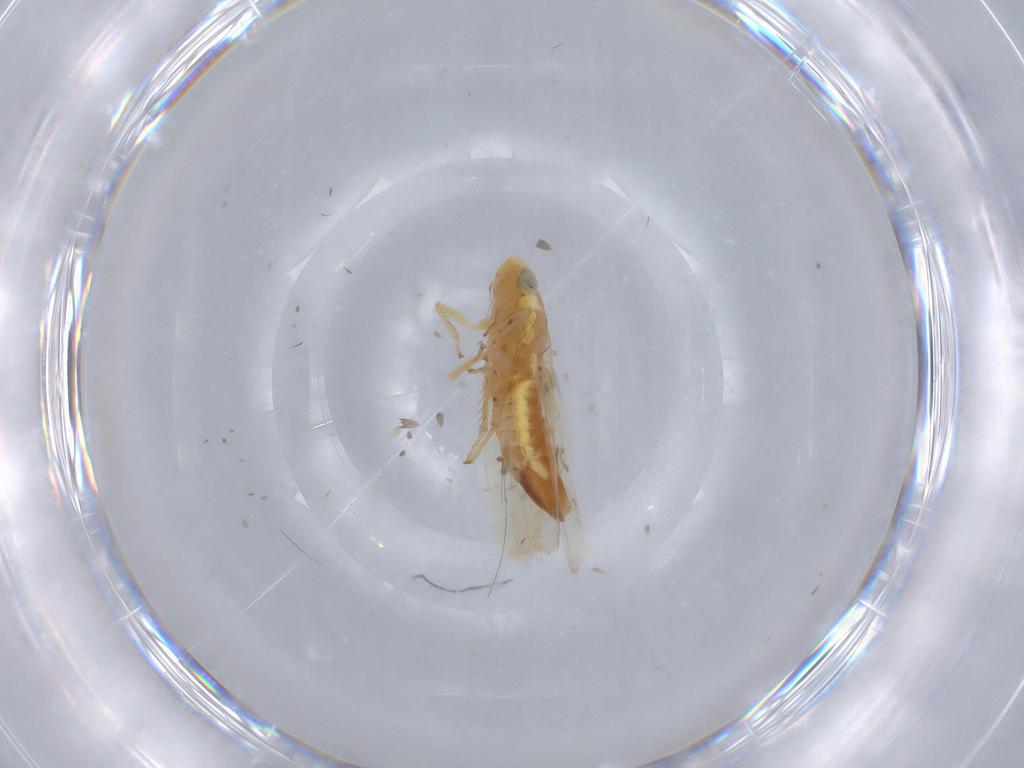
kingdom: Animalia
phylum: Arthropoda
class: Insecta
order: Hemiptera
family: Cicadellidae
